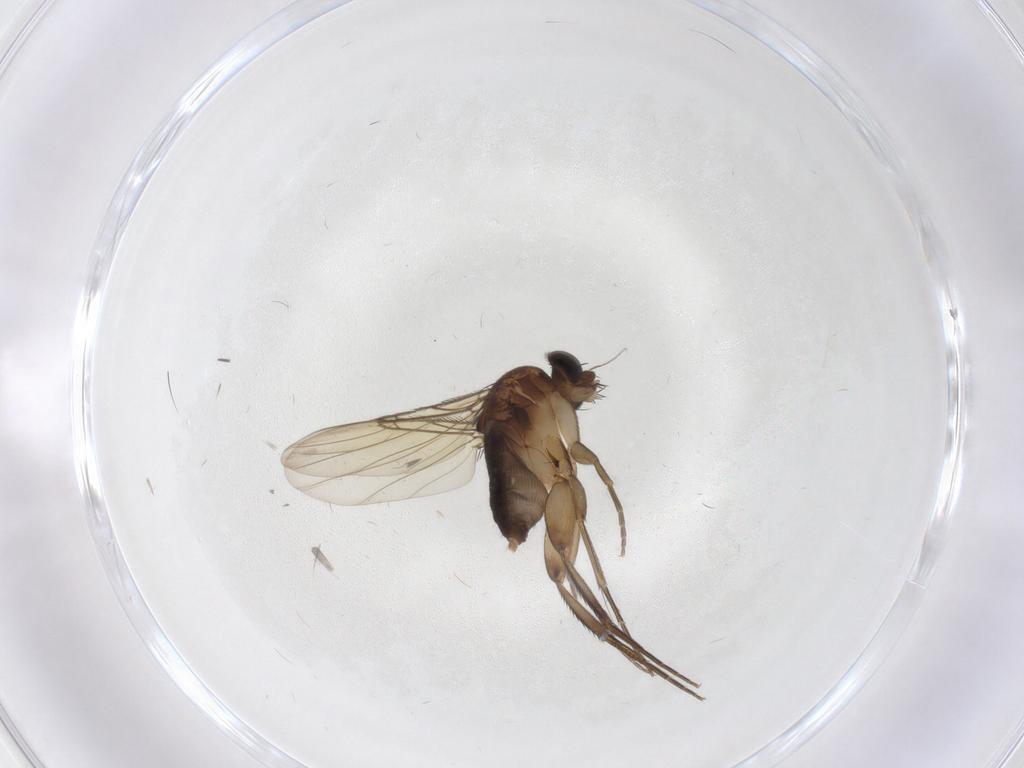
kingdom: Animalia
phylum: Arthropoda
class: Insecta
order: Diptera
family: Phoridae
